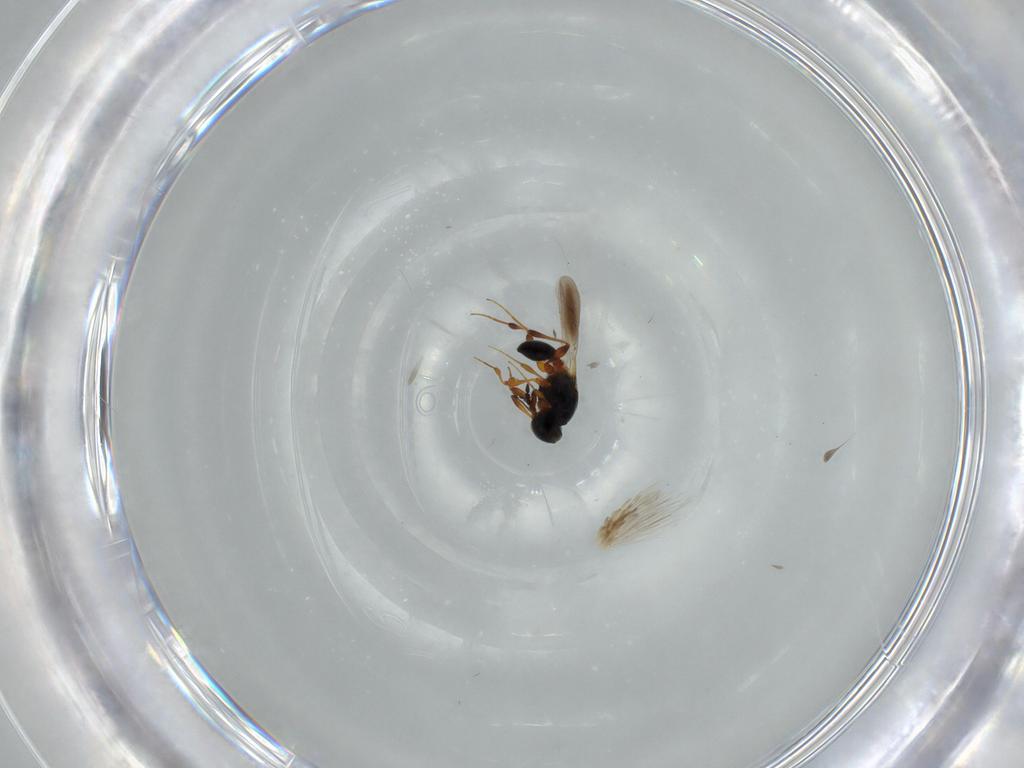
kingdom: Animalia
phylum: Arthropoda
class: Insecta
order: Hymenoptera
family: Platygastridae
